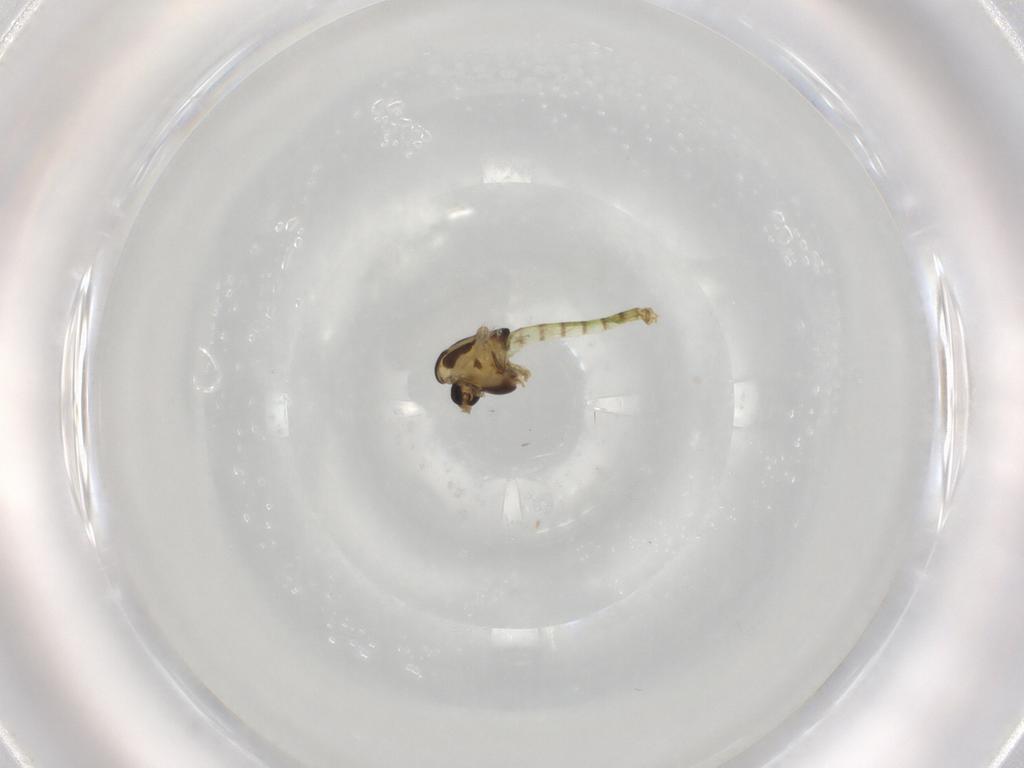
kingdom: Animalia
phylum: Arthropoda
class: Insecta
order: Diptera
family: Chironomidae
